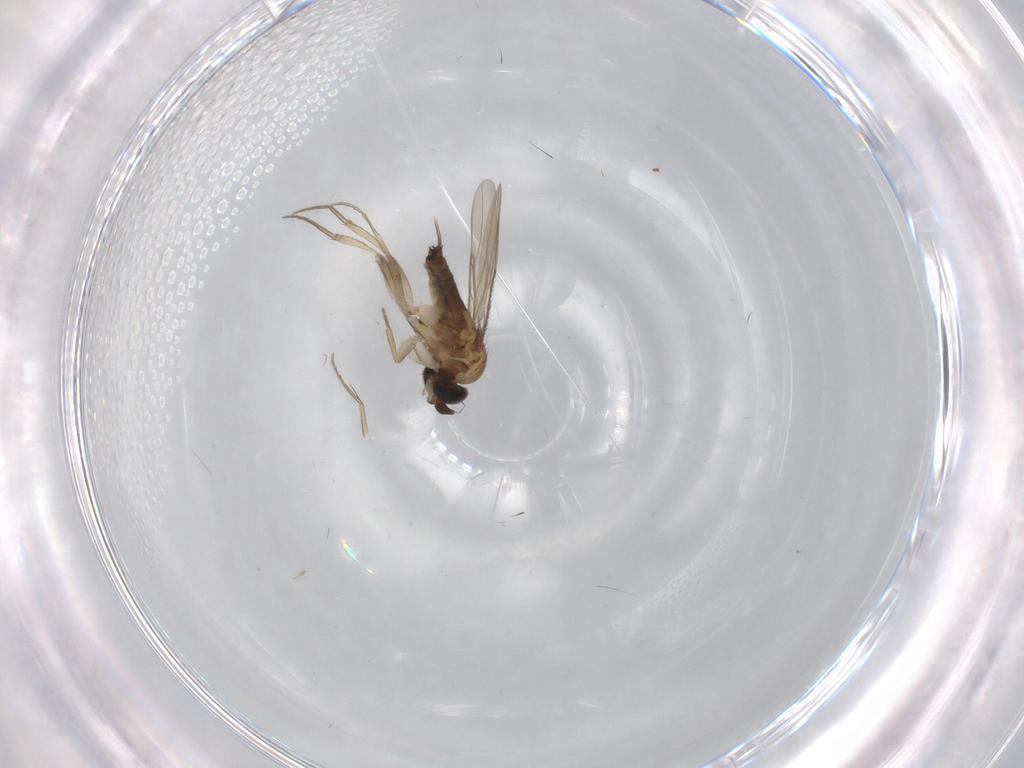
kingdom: Animalia
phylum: Arthropoda
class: Insecta
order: Diptera
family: Phoridae
